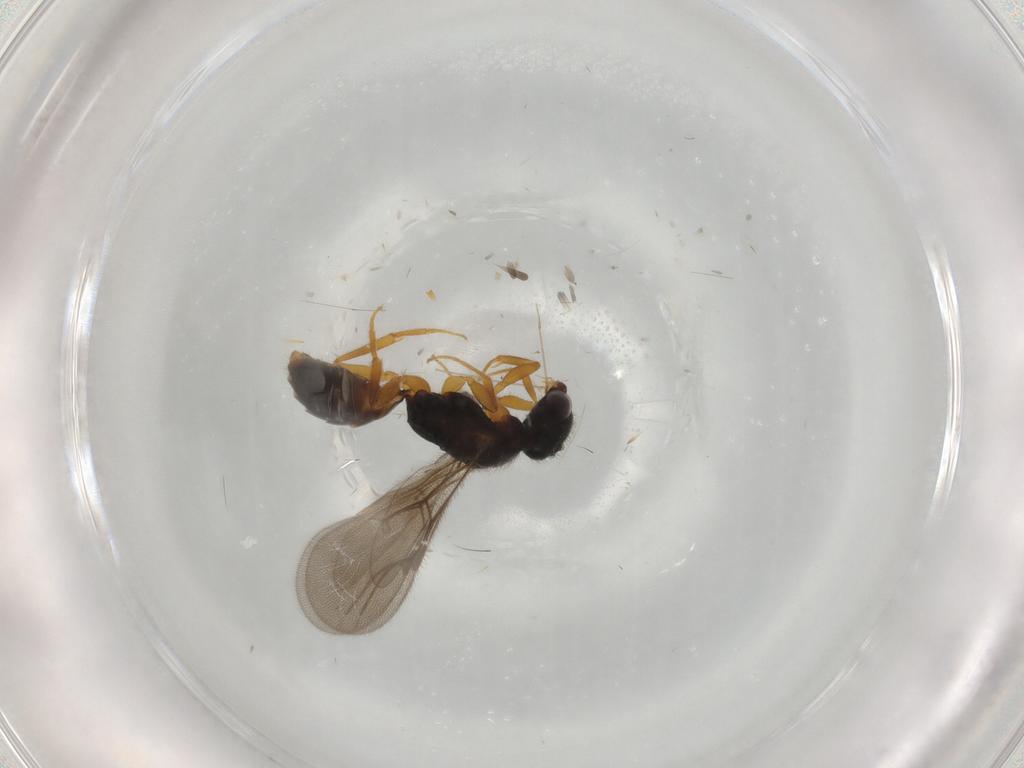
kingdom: Animalia
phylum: Arthropoda
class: Insecta
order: Hymenoptera
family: Bethylidae
